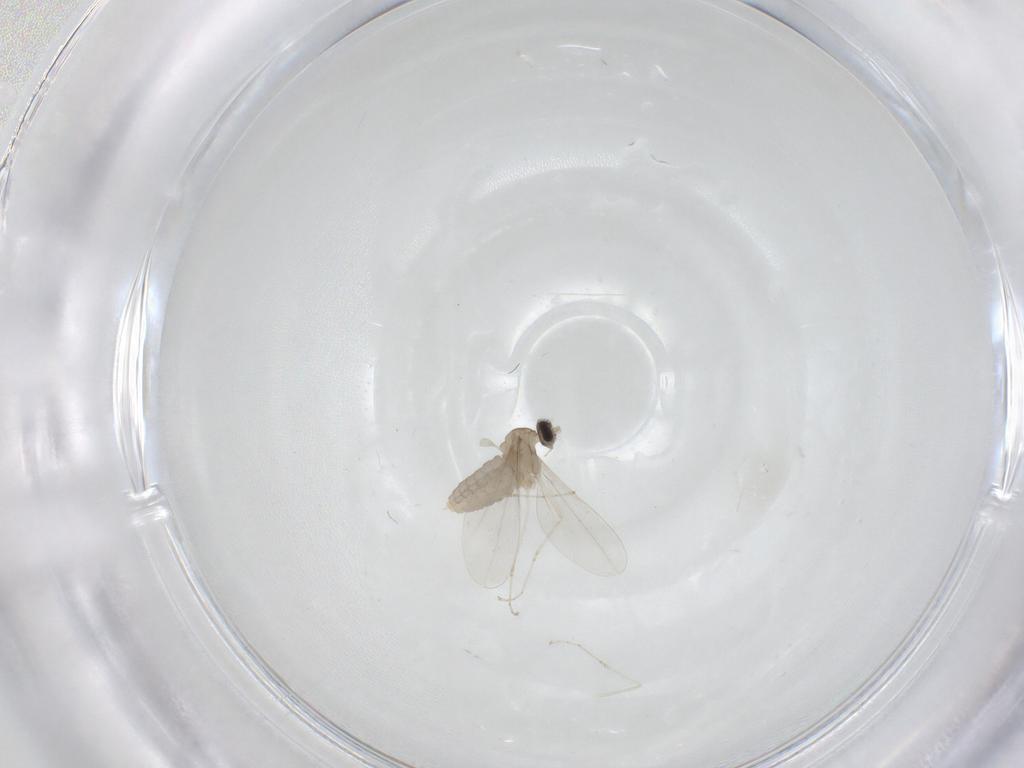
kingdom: Animalia
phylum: Arthropoda
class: Insecta
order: Diptera
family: Cecidomyiidae
